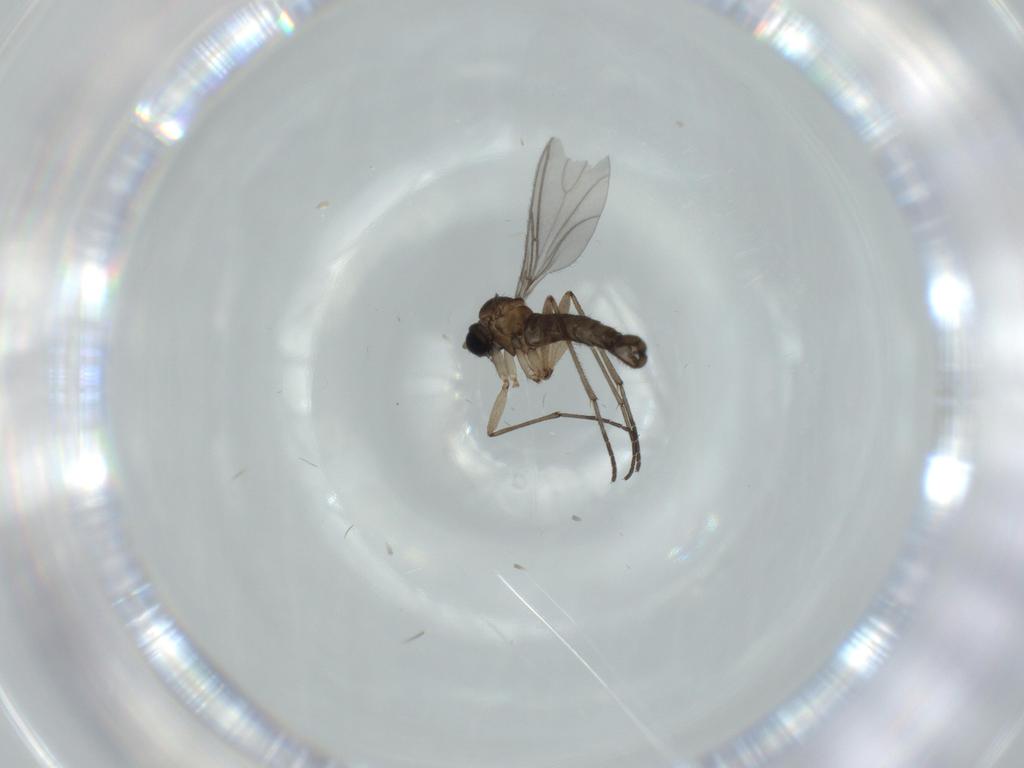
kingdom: Animalia
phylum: Arthropoda
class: Insecta
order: Diptera
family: Sciaridae
